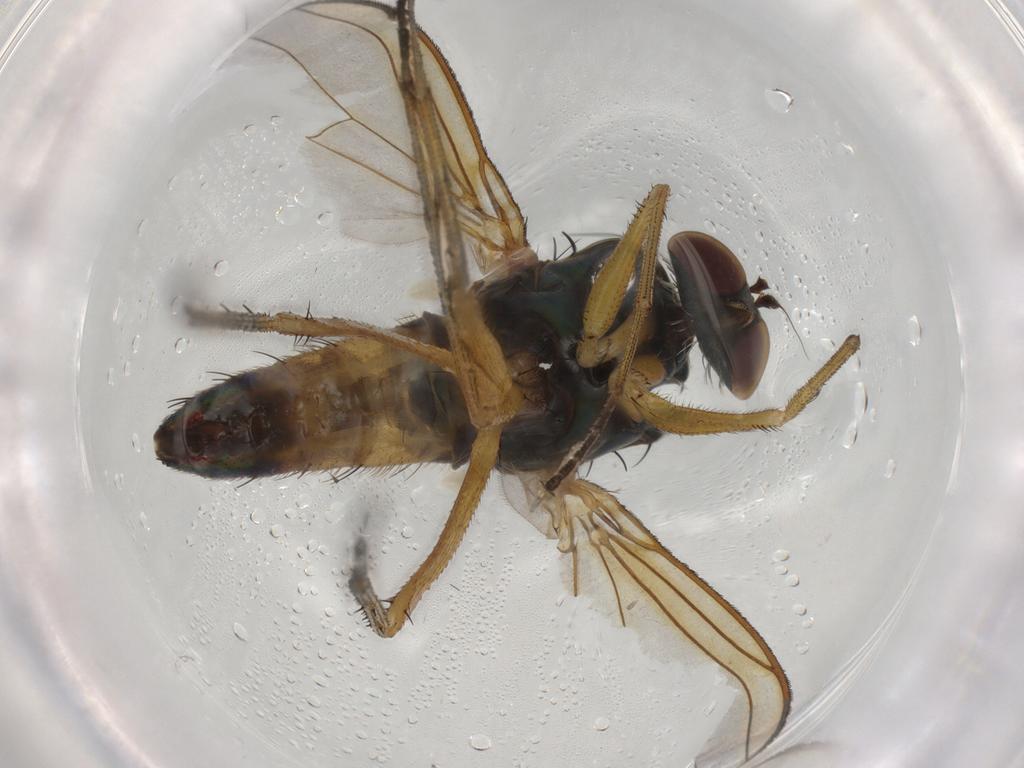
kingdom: Animalia
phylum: Arthropoda
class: Insecta
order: Diptera
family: Dolichopodidae
